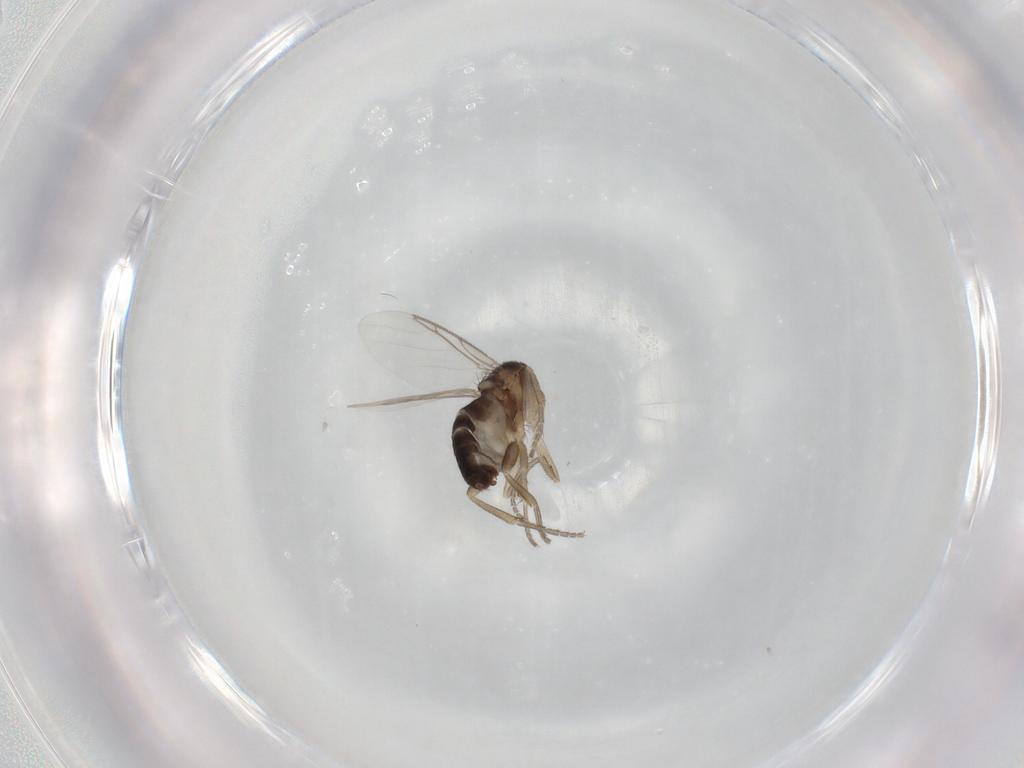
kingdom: Animalia
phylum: Arthropoda
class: Insecta
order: Diptera
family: Phoridae
